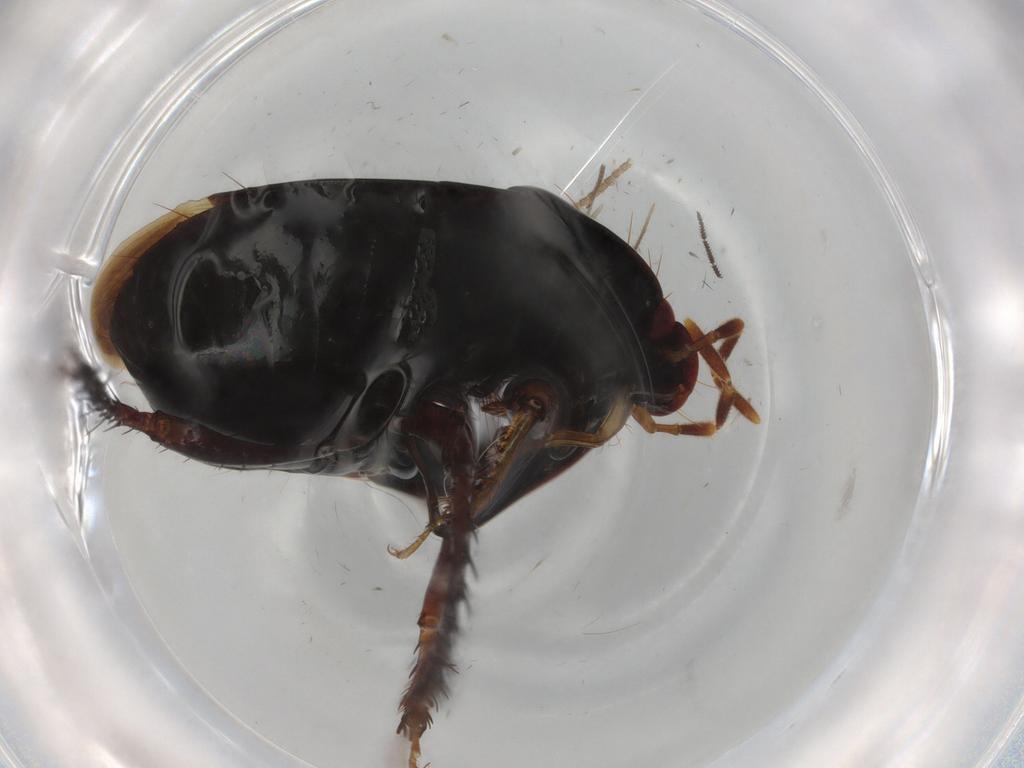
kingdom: Animalia
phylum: Arthropoda
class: Insecta
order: Hemiptera
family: Cydnidae
